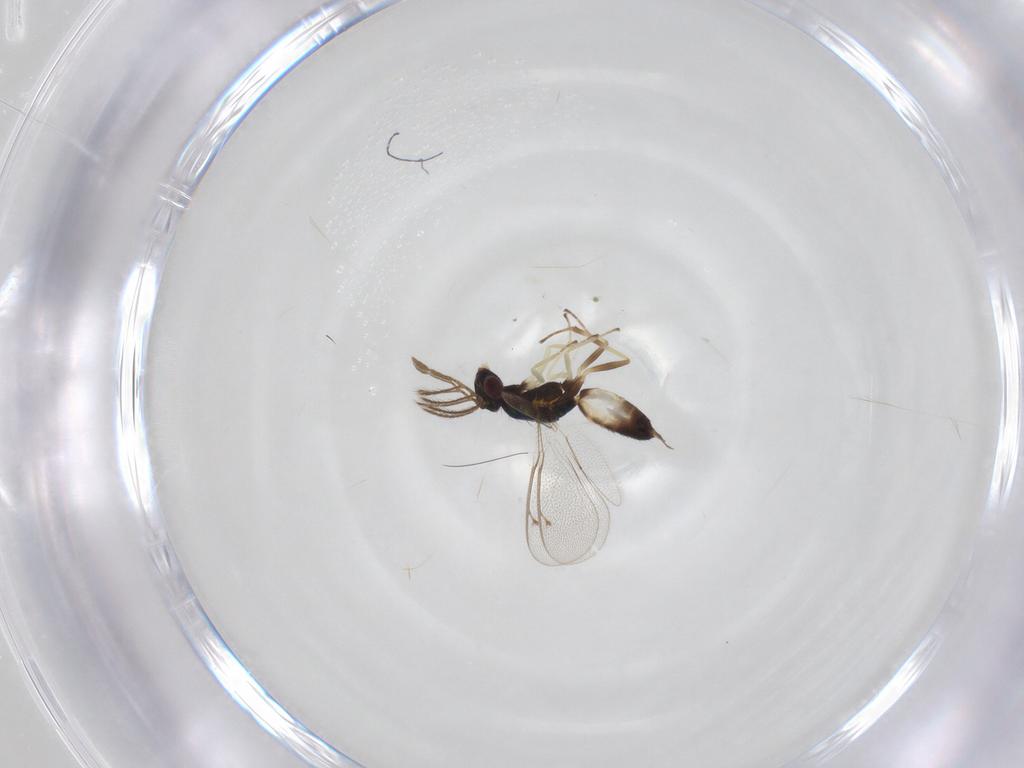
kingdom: Animalia
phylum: Arthropoda
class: Insecta
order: Hymenoptera
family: Eulophidae
